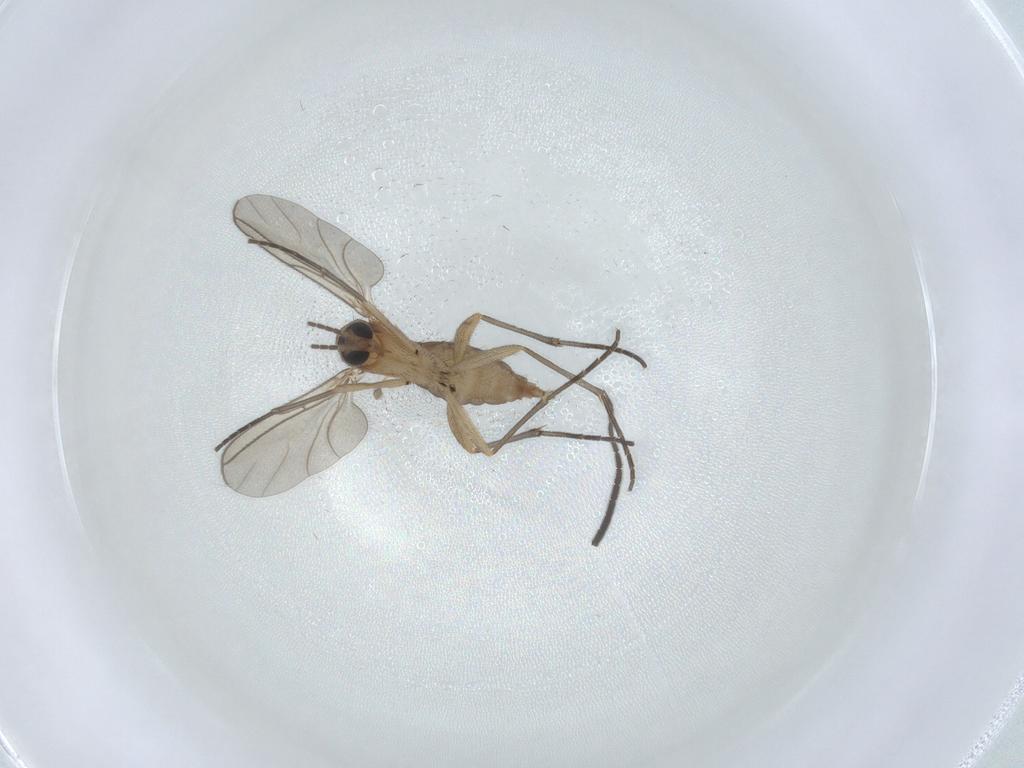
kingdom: Animalia
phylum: Arthropoda
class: Insecta
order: Diptera
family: Sciaridae
